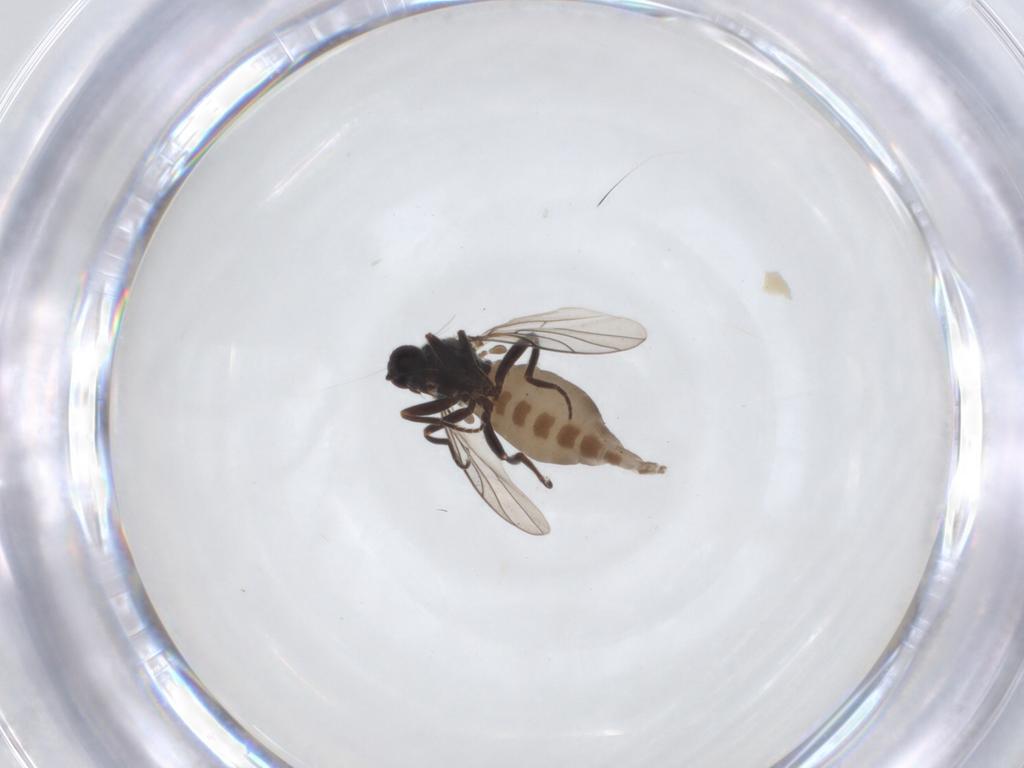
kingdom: Animalia
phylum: Arthropoda
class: Insecta
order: Diptera
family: Hybotidae
